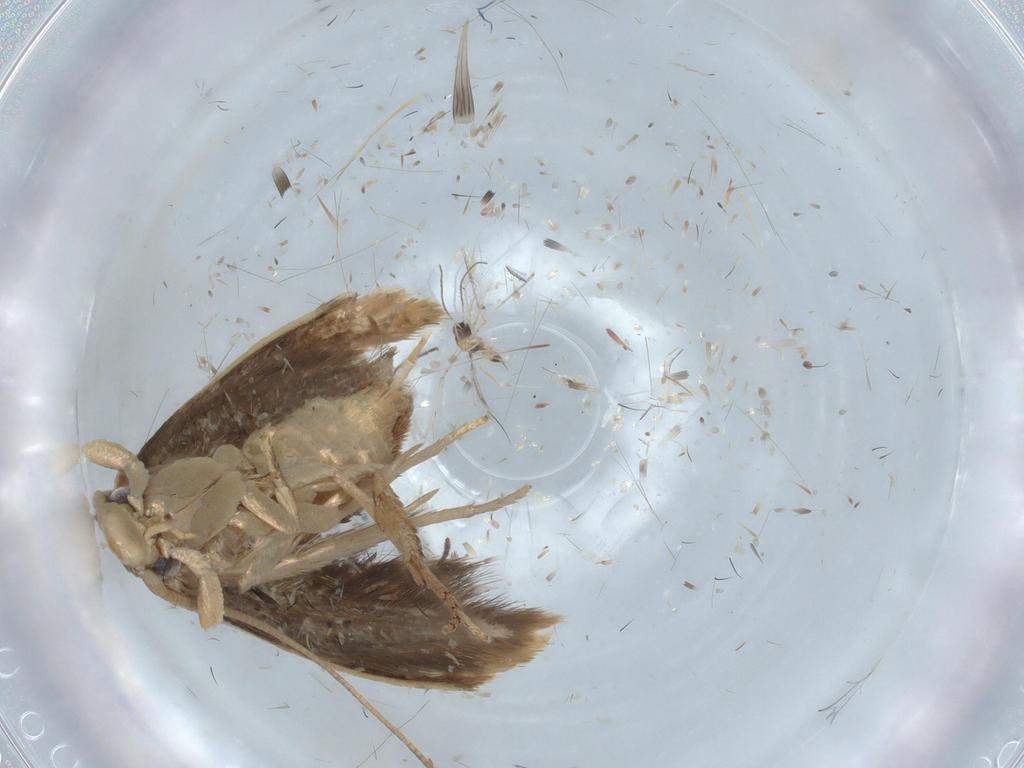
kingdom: Animalia
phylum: Arthropoda
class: Insecta
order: Lepidoptera
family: Tineidae
